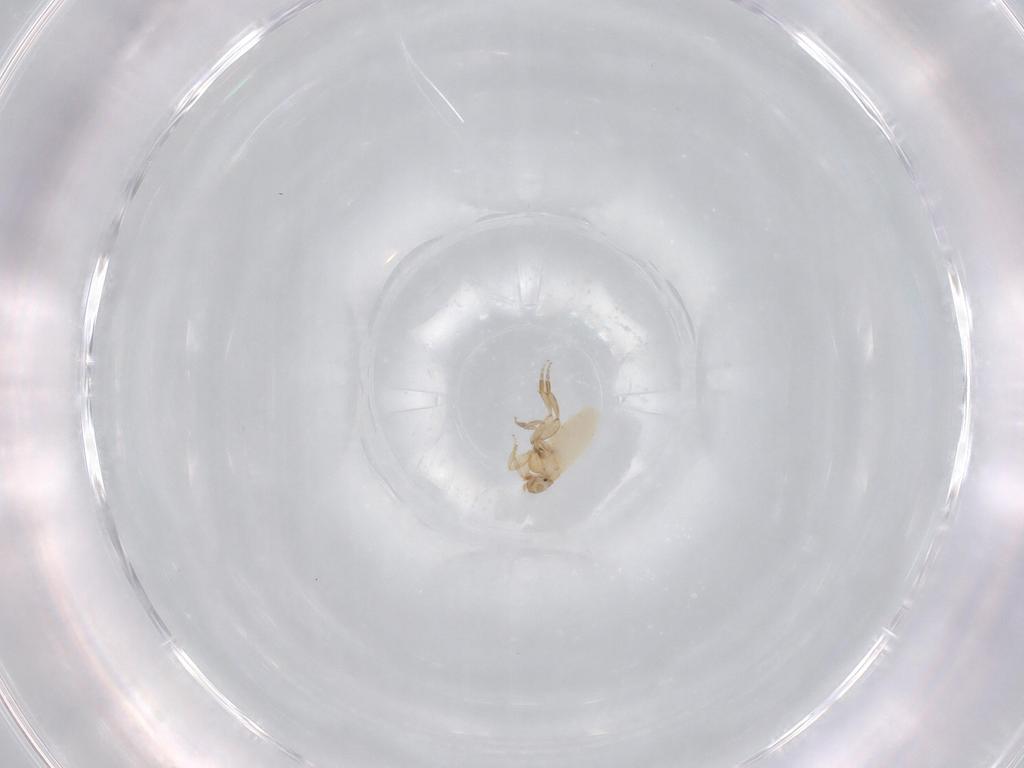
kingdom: Animalia
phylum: Arthropoda
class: Insecta
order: Diptera
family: Phoridae
